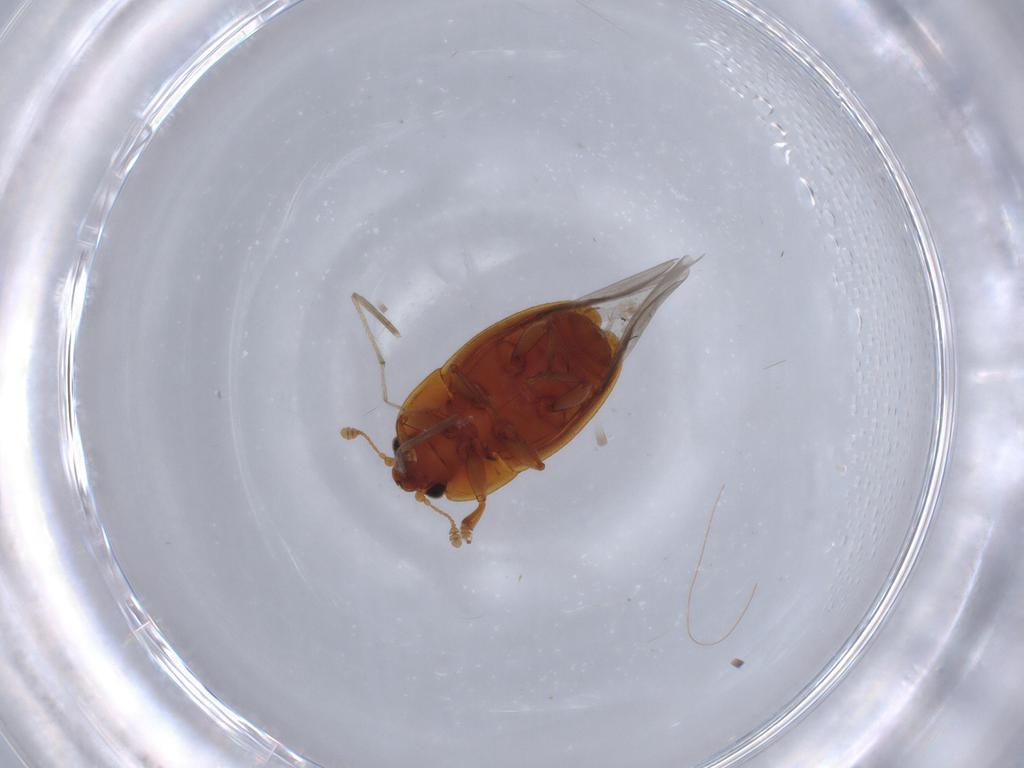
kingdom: Animalia
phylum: Arthropoda
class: Insecta
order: Coleoptera
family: Nitidulidae
